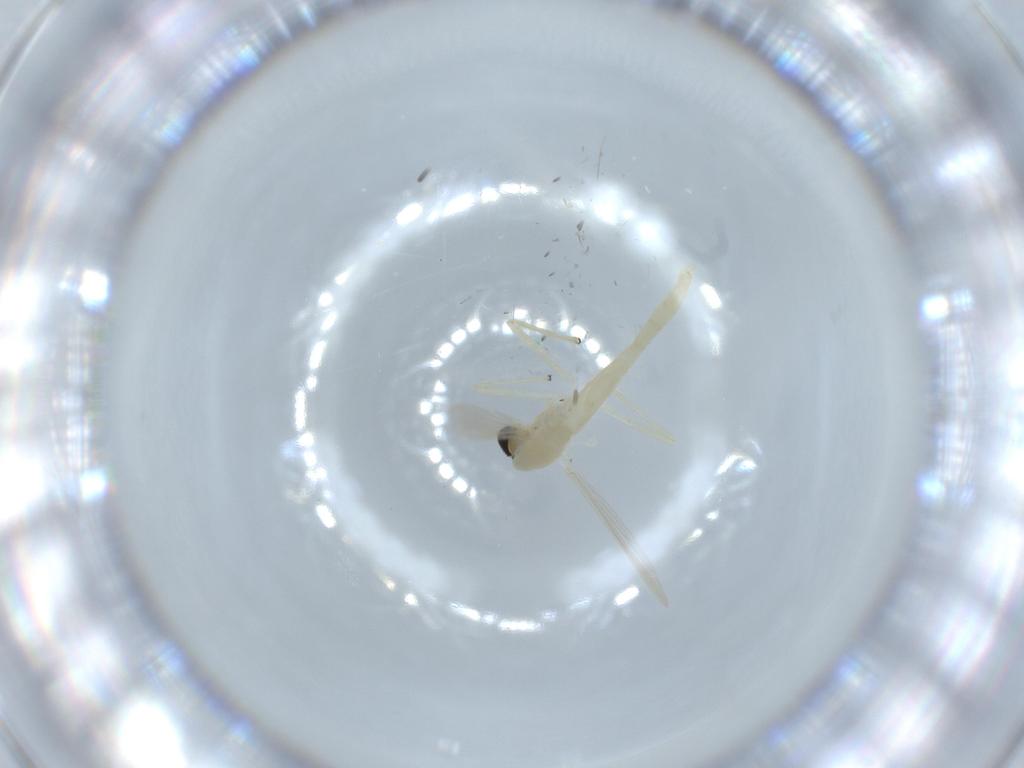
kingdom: Animalia
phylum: Arthropoda
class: Insecta
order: Diptera
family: Chironomidae
